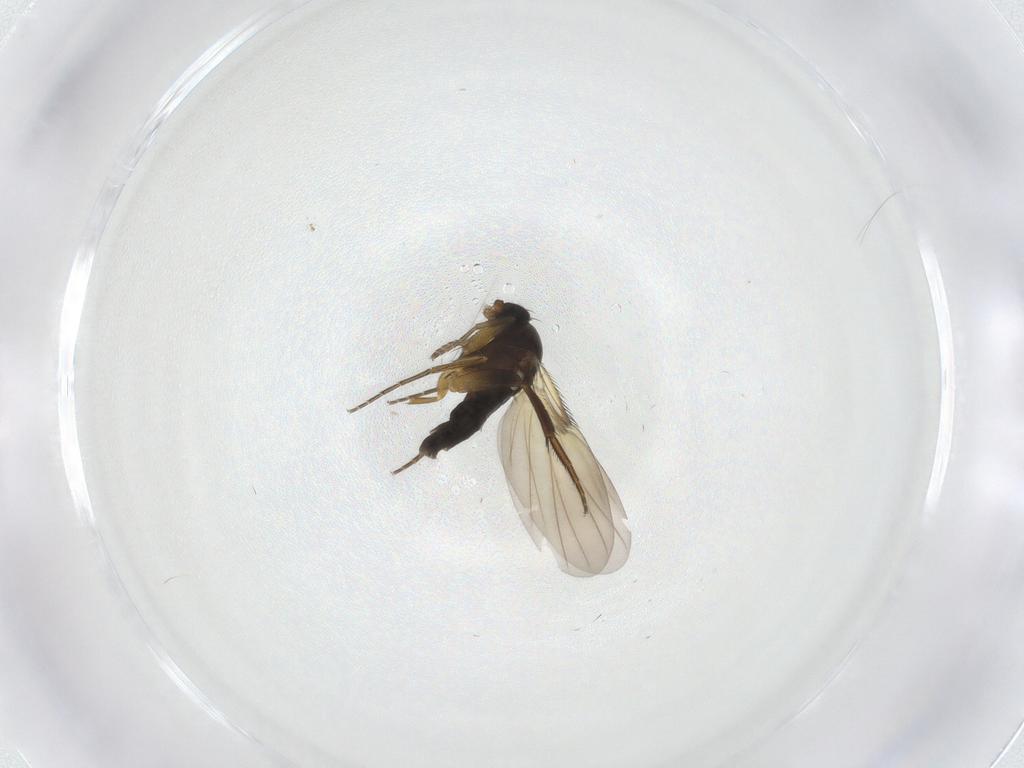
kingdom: Animalia
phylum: Arthropoda
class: Insecta
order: Diptera
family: Phoridae
